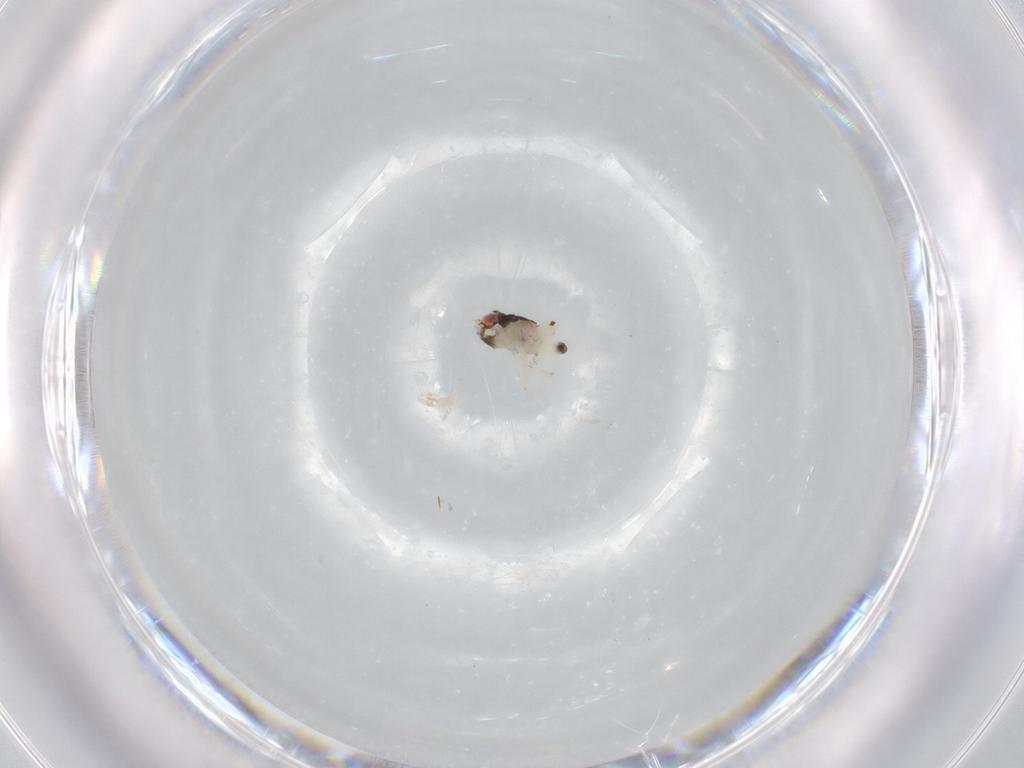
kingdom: Animalia
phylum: Arthropoda
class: Insecta
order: Hemiptera
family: Nogodinidae
